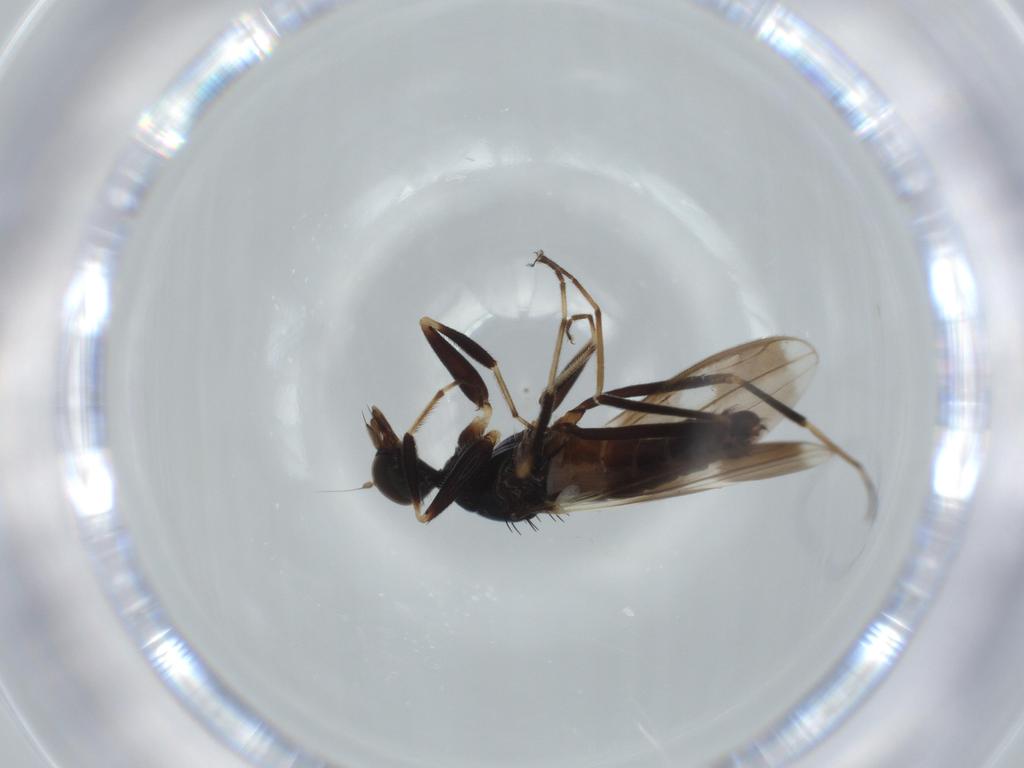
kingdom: Animalia
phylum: Arthropoda
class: Insecta
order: Diptera
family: Hybotidae
